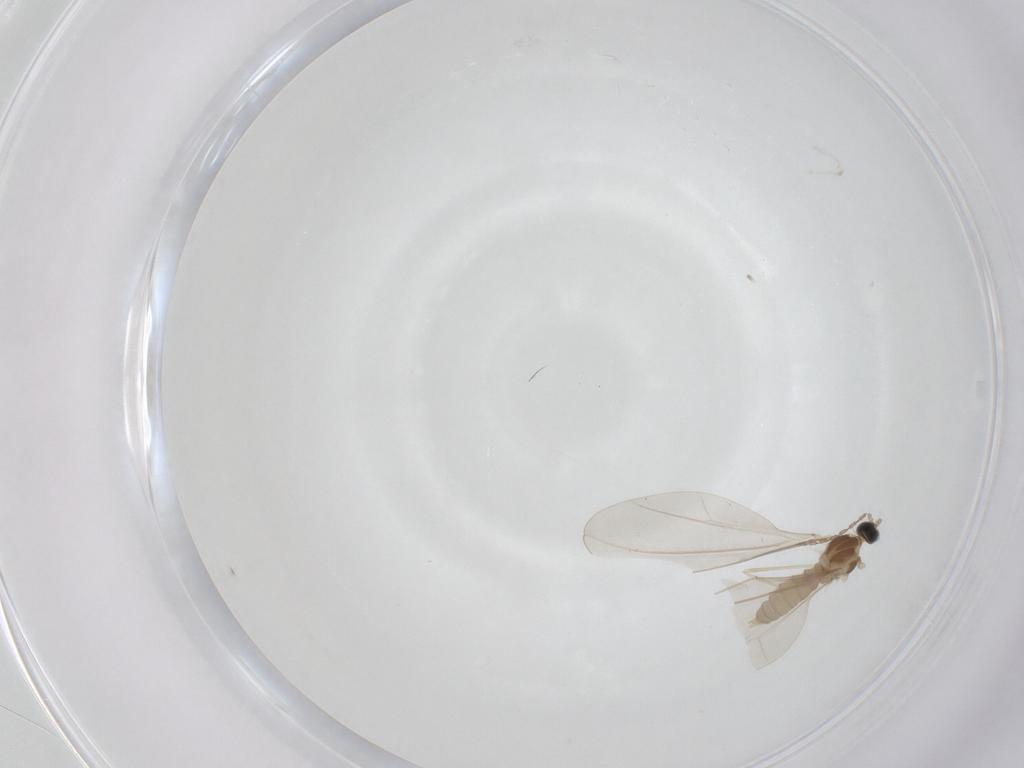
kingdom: Animalia
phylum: Arthropoda
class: Insecta
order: Diptera
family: Cecidomyiidae
